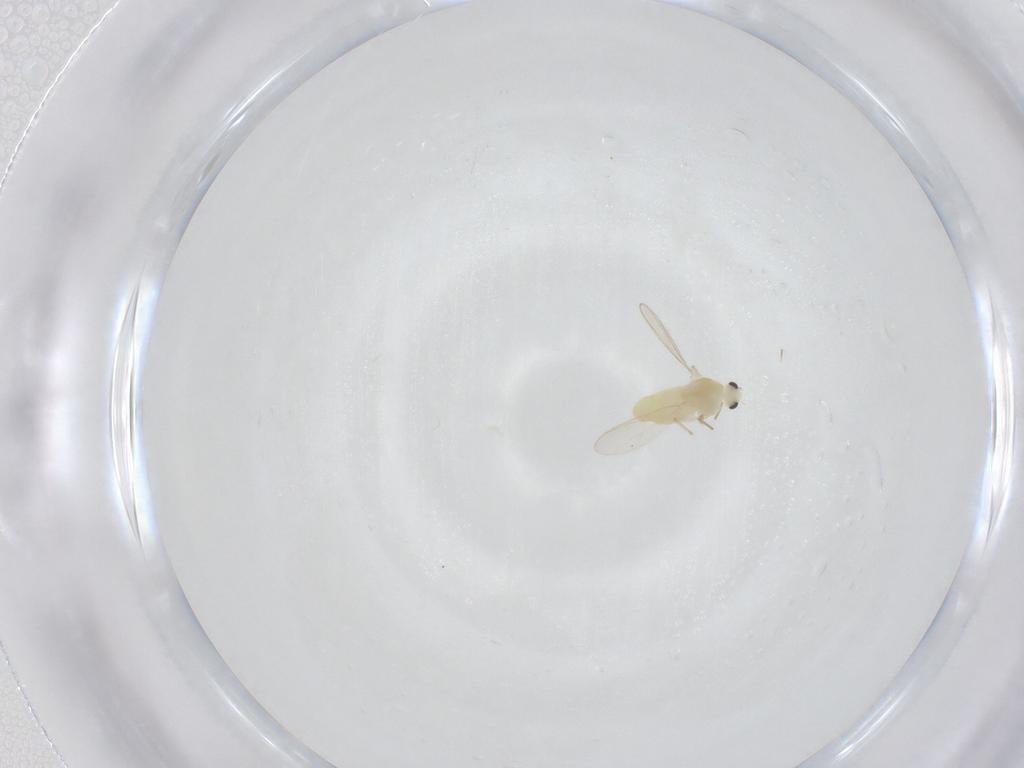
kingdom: Animalia
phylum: Arthropoda
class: Insecta
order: Diptera
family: Chironomidae
